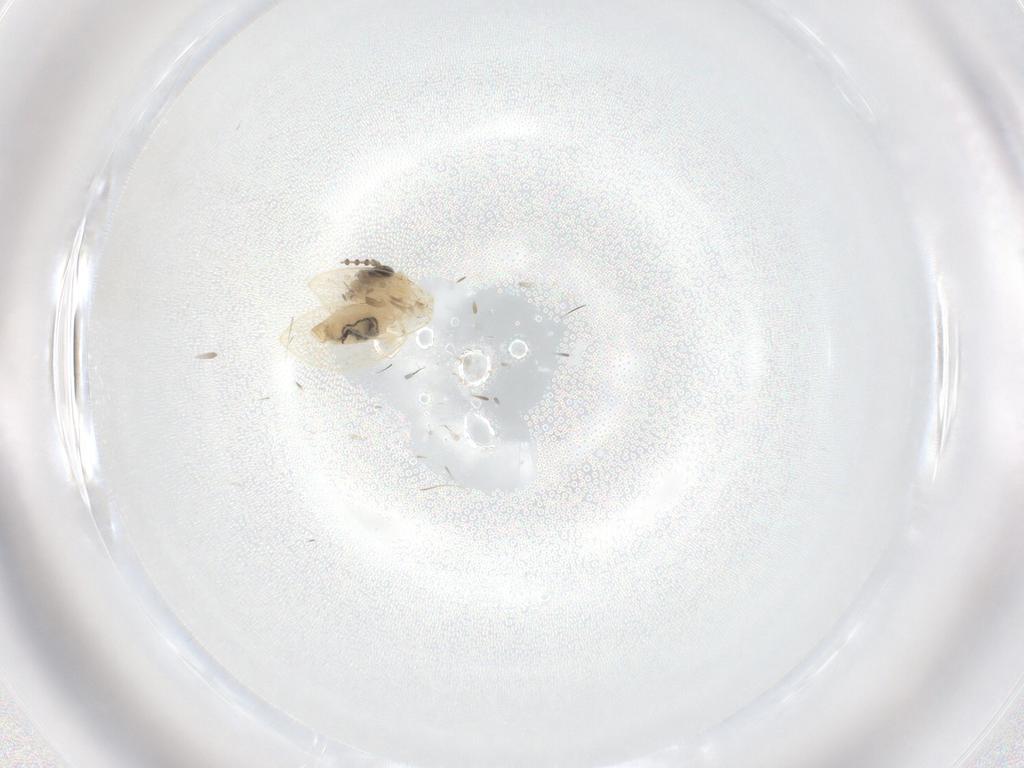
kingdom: Animalia
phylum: Arthropoda
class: Insecta
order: Diptera
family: Psychodidae
